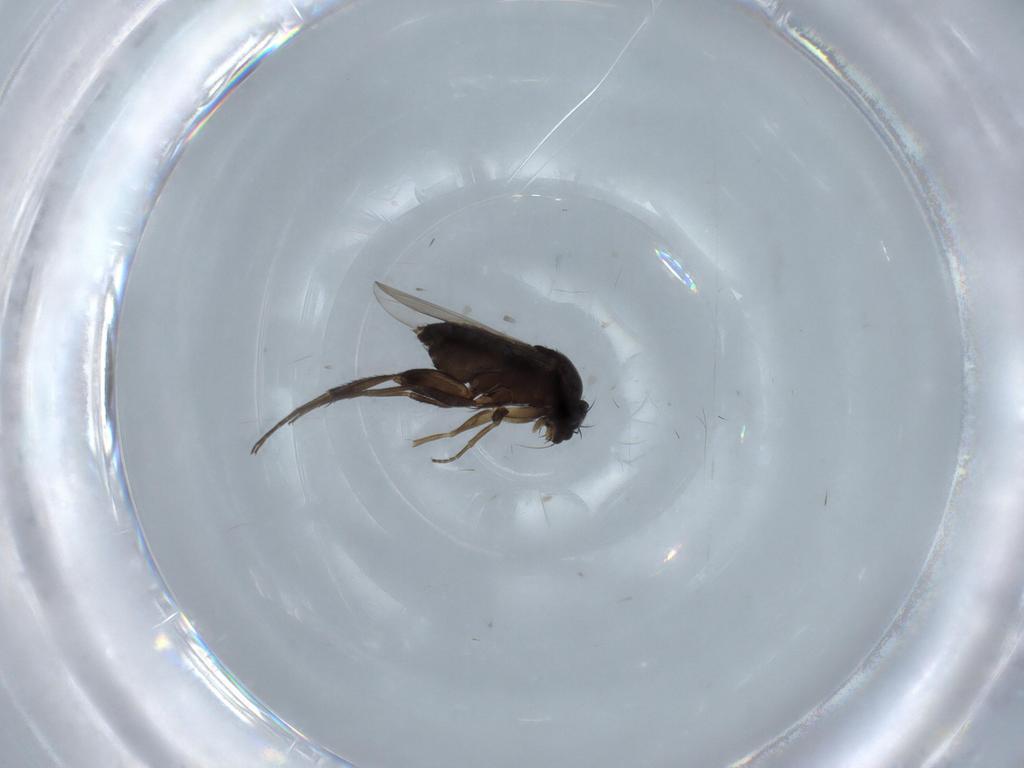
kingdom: Animalia
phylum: Arthropoda
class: Insecta
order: Diptera
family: Phoridae
